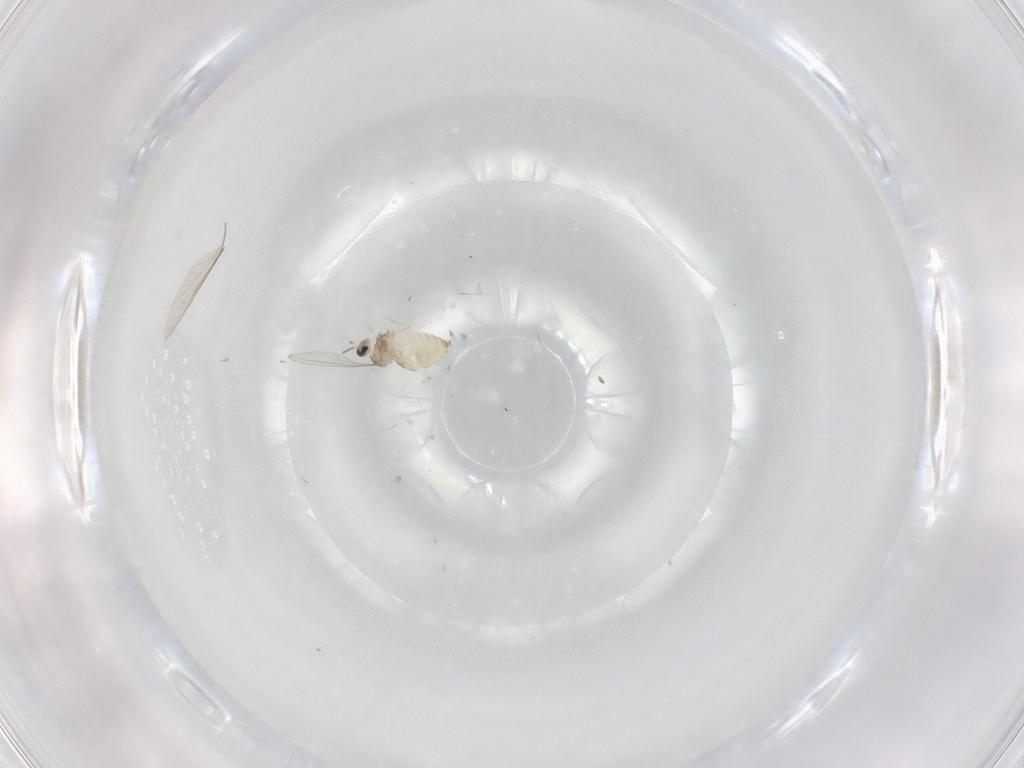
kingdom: Animalia
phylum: Arthropoda
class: Insecta
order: Diptera
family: Cecidomyiidae
